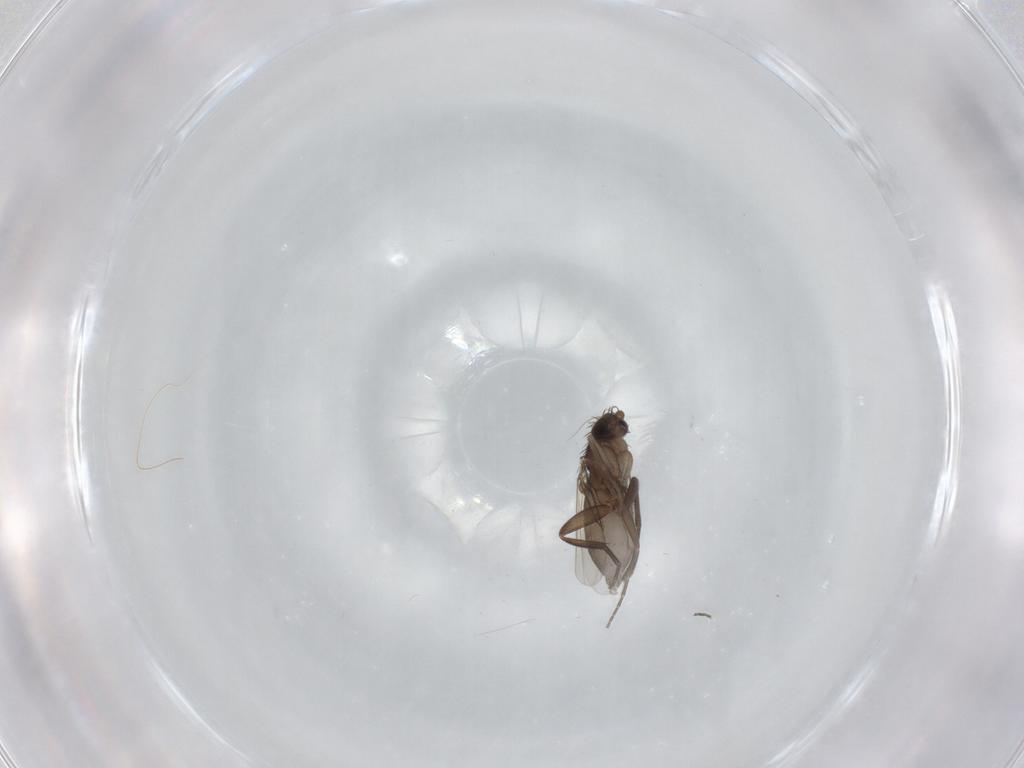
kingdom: Animalia
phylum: Arthropoda
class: Insecta
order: Diptera
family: Phoridae
